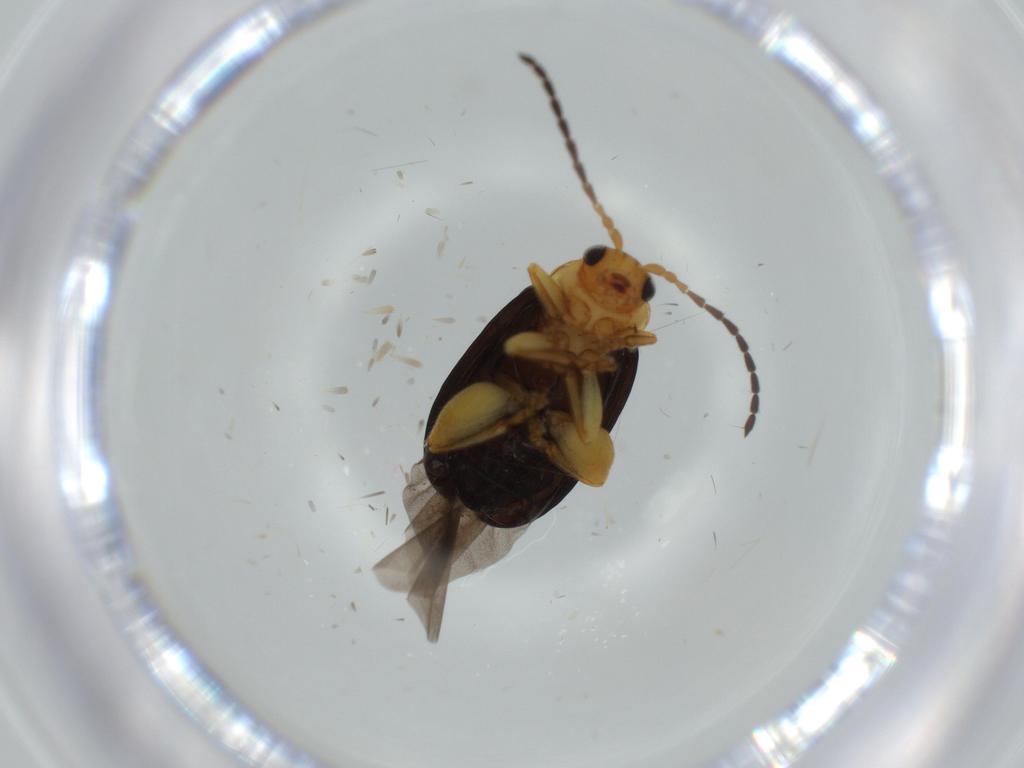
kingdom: Animalia
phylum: Arthropoda
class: Insecta
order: Coleoptera
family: Chrysomelidae
